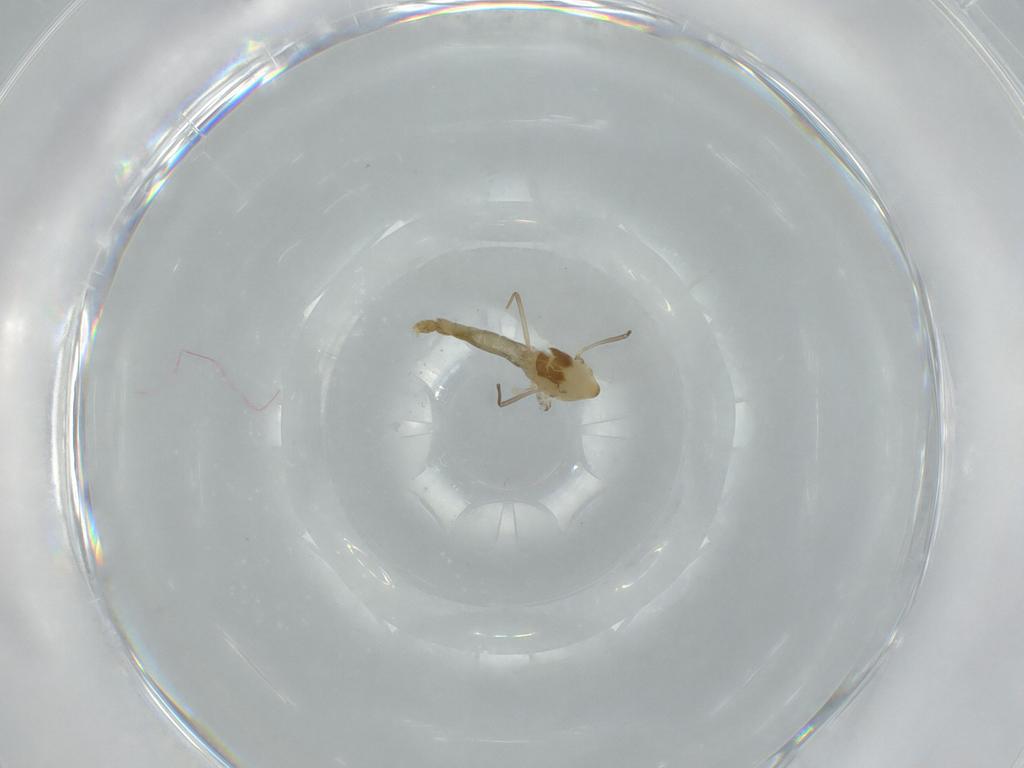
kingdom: Animalia
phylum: Arthropoda
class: Insecta
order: Diptera
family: Chironomidae
